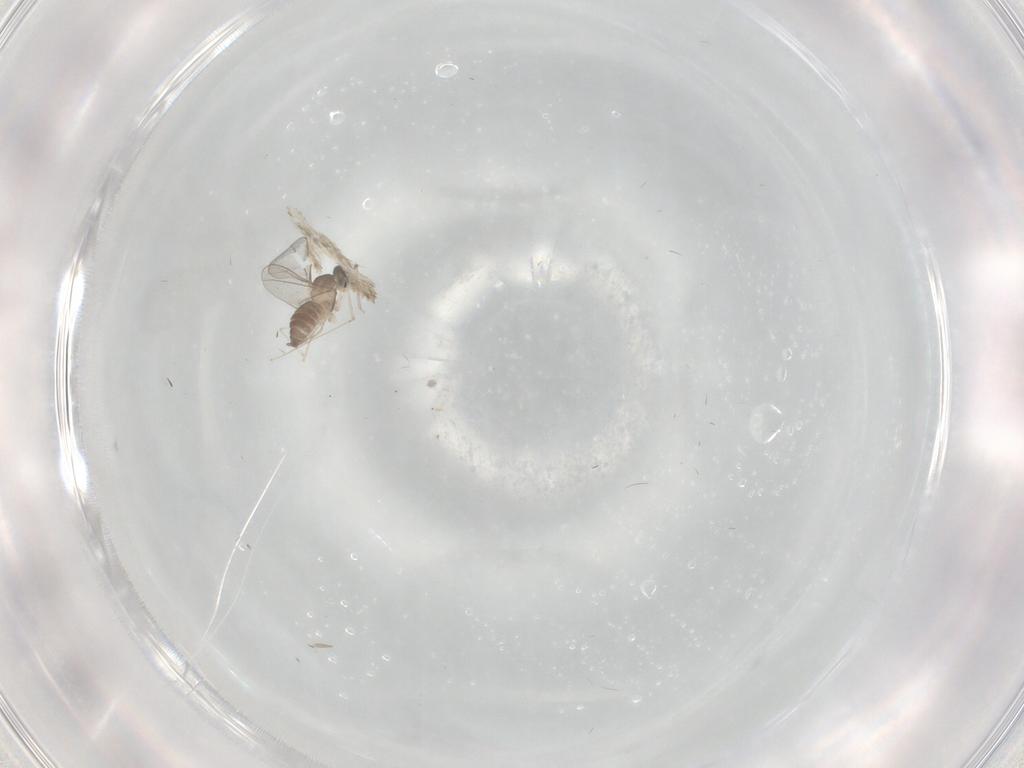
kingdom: Animalia
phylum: Arthropoda
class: Insecta
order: Diptera
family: Cecidomyiidae
